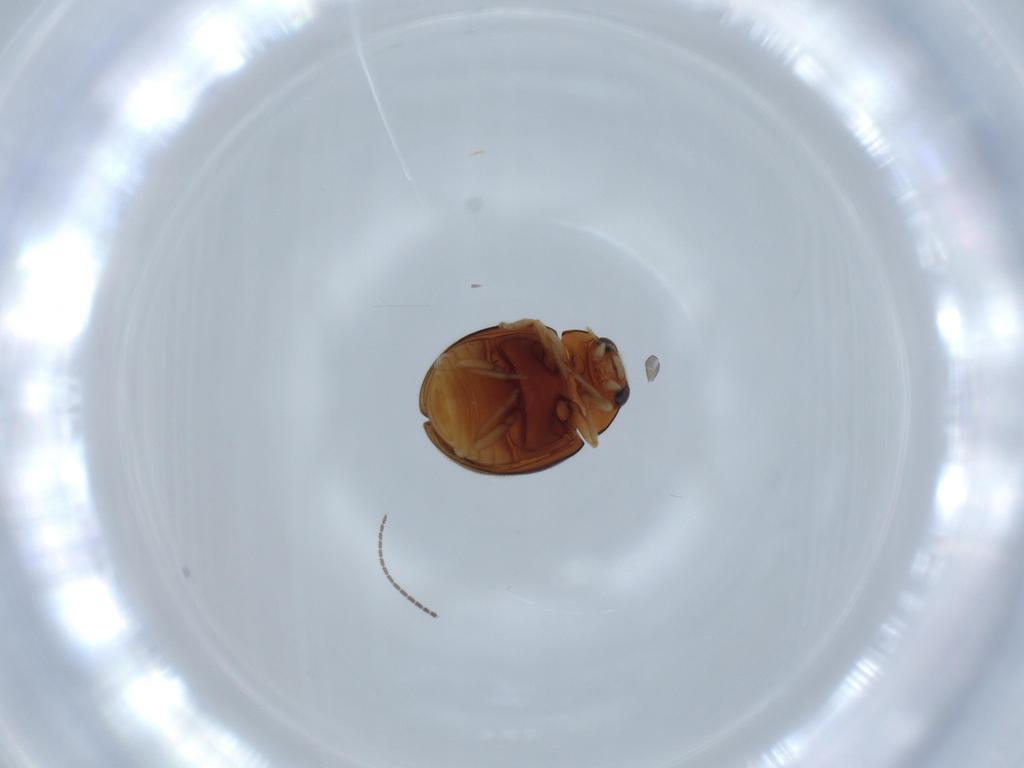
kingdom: Animalia
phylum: Arthropoda
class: Insecta
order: Coleoptera
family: Coccinellidae
